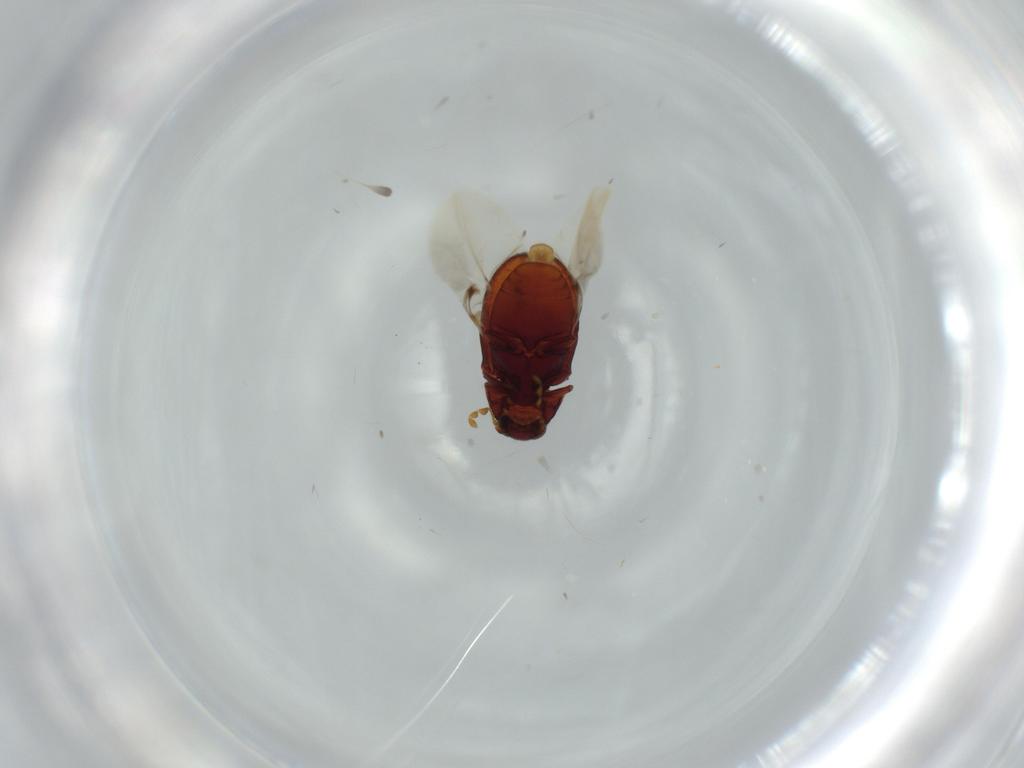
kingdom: Animalia
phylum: Arthropoda
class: Insecta
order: Coleoptera
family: Ptinidae
